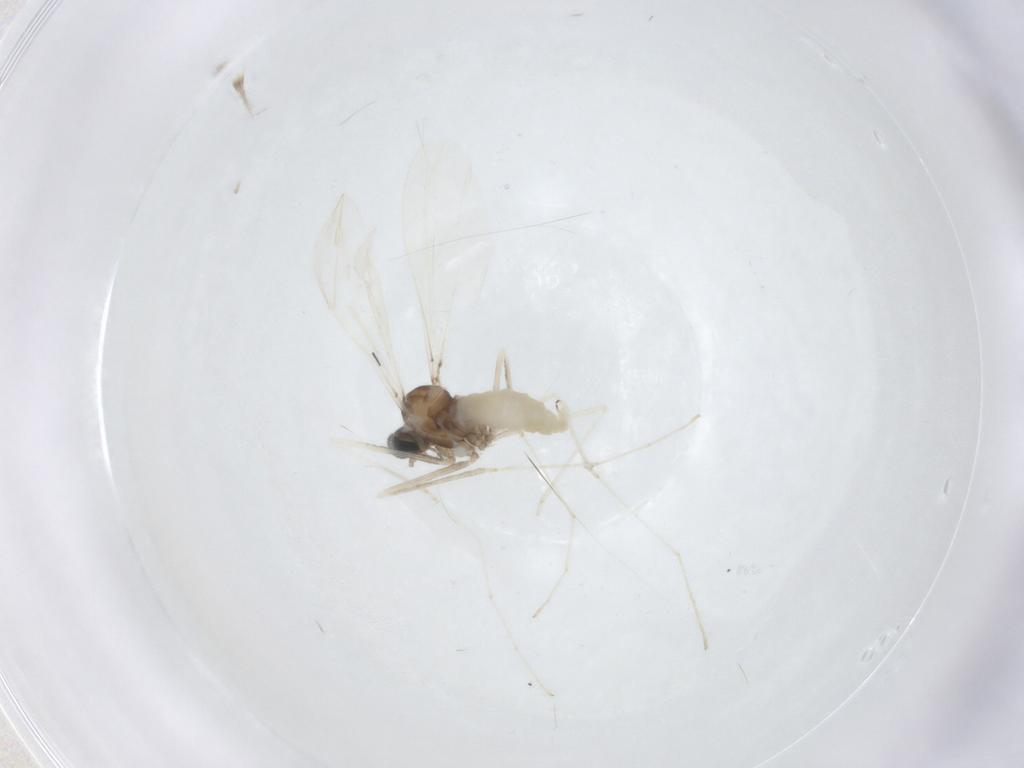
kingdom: Animalia
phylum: Arthropoda
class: Insecta
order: Diptera
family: Cecidomyiidae
